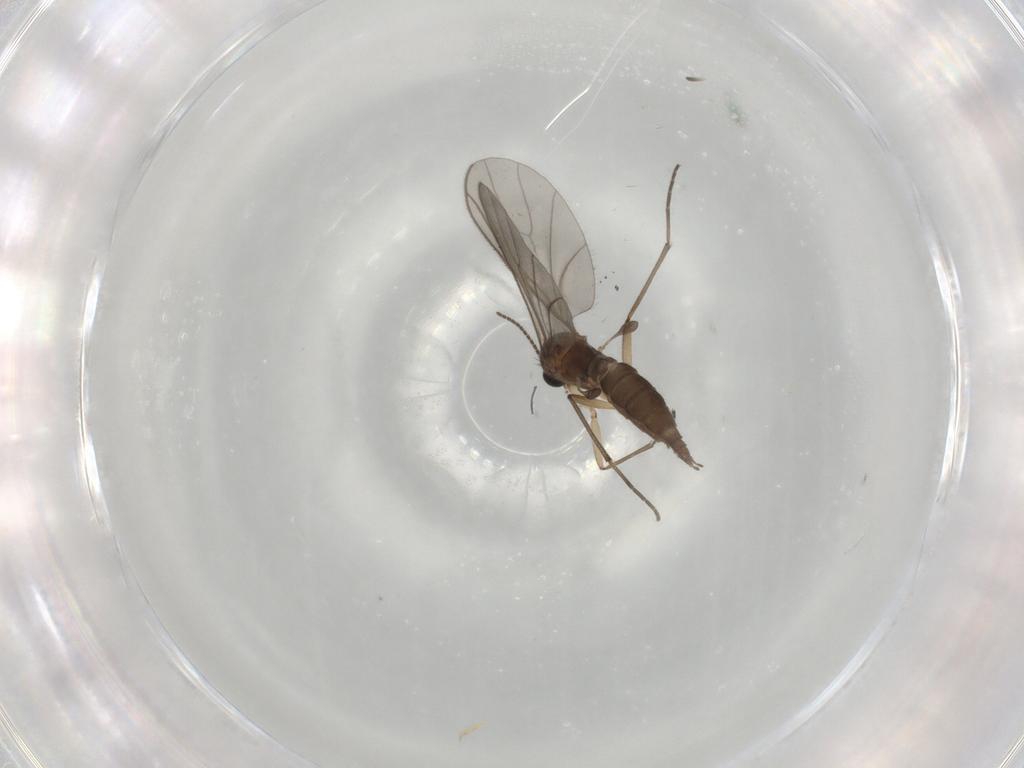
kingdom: Animalia
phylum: Arthropoda
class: Insecta
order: Diptera
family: Sciaridae
